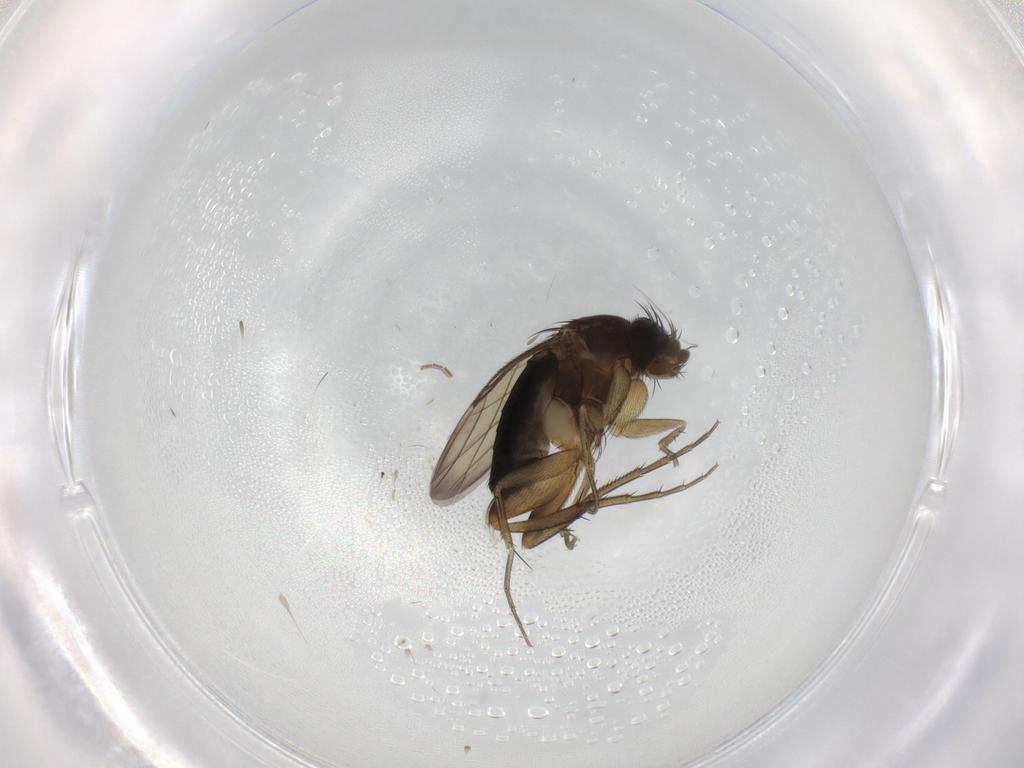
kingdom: Animalia
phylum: Arthropoda
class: Insecta
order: Diptera
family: Phoridae
